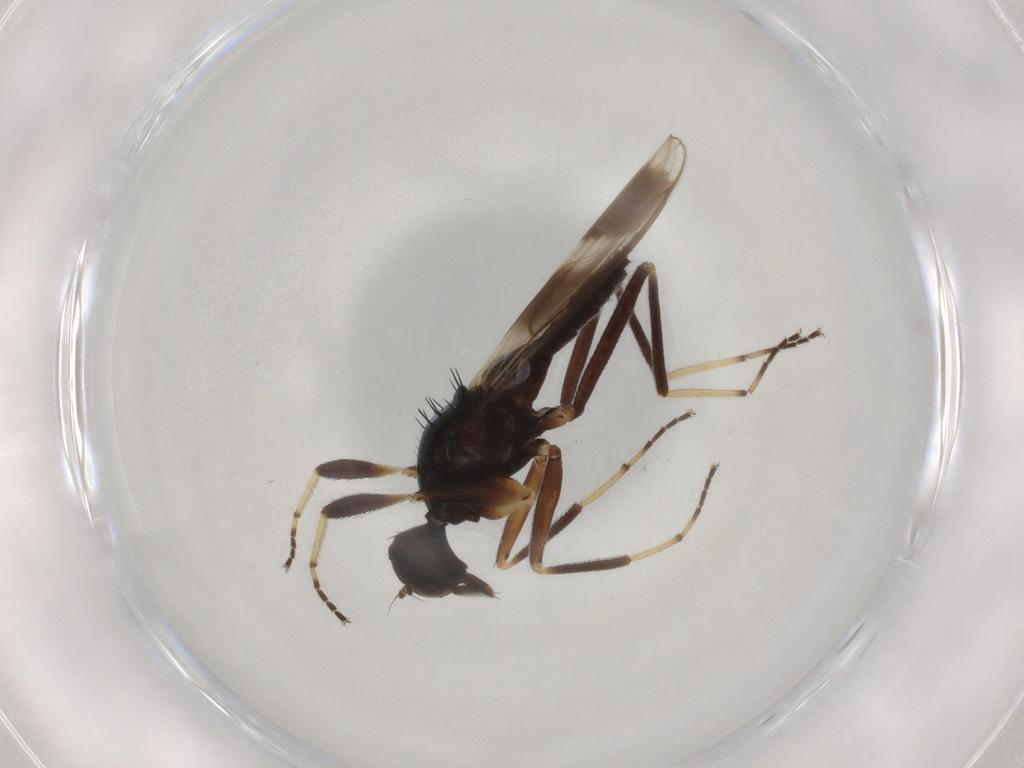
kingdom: Animalia
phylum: Arthropoda
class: Insecta
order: Diptera
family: Hybotidae
